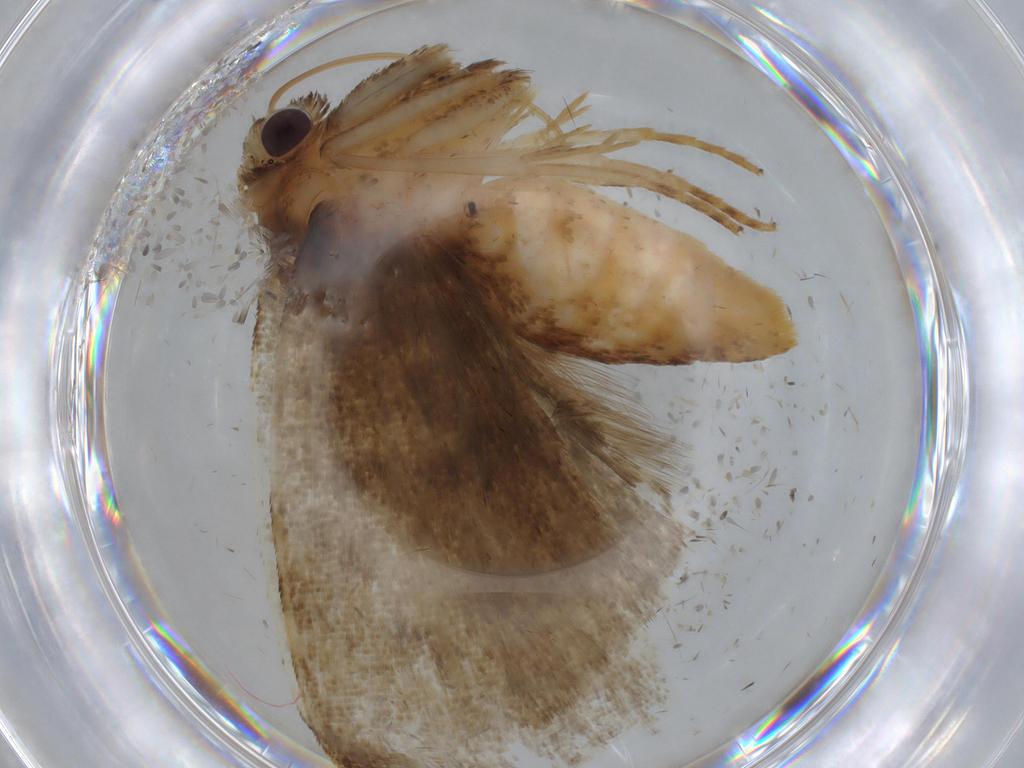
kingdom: Animalia
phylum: Arthropoda
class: Insecta
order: Lepidoptera
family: Erebidae
